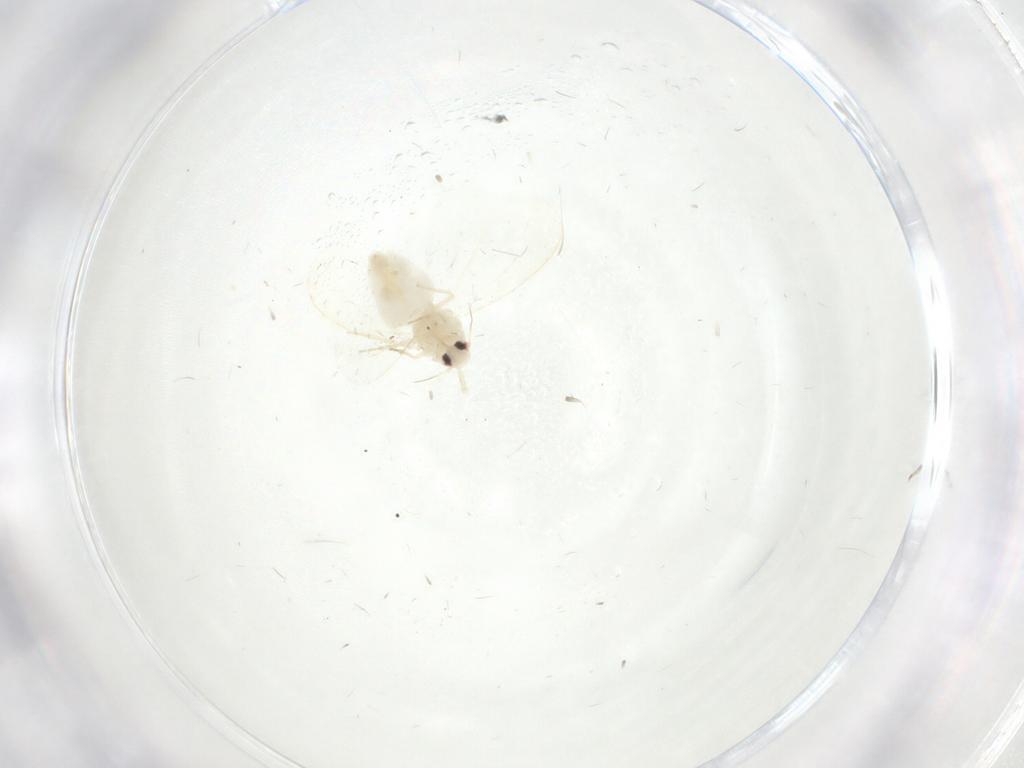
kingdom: Animalia
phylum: Arthropoda
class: Insecta
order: Hemiptera
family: Aleyrodidae
